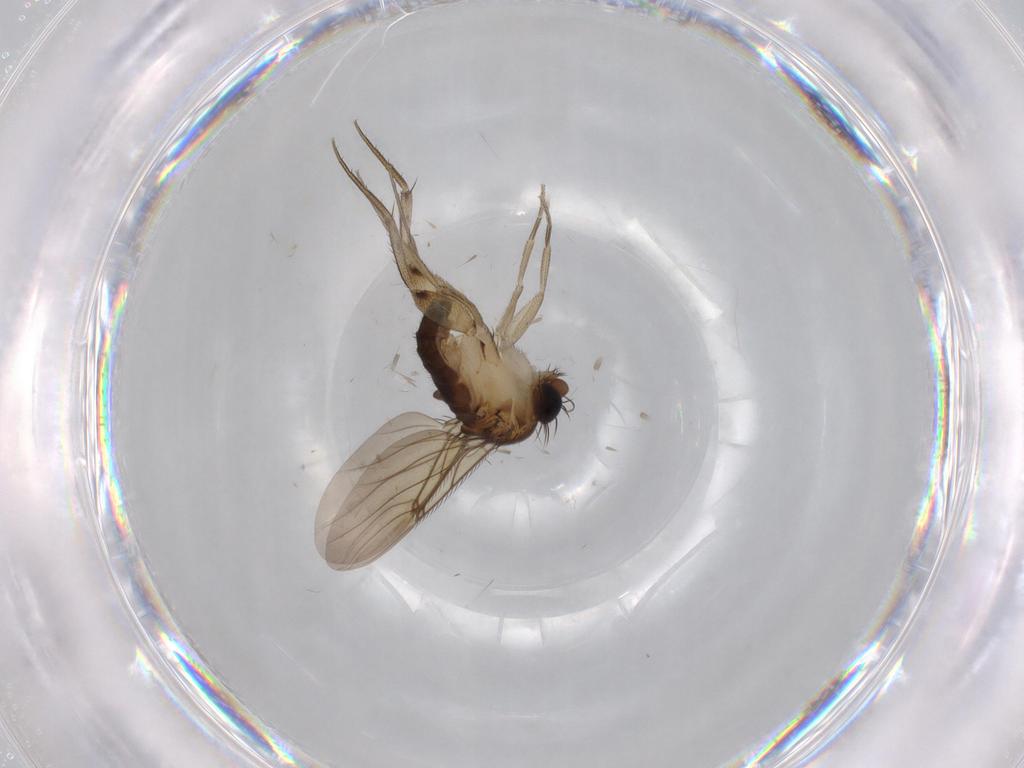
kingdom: Animalia
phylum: Arthropoda
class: Insecta
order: Diptera
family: Phoridae
